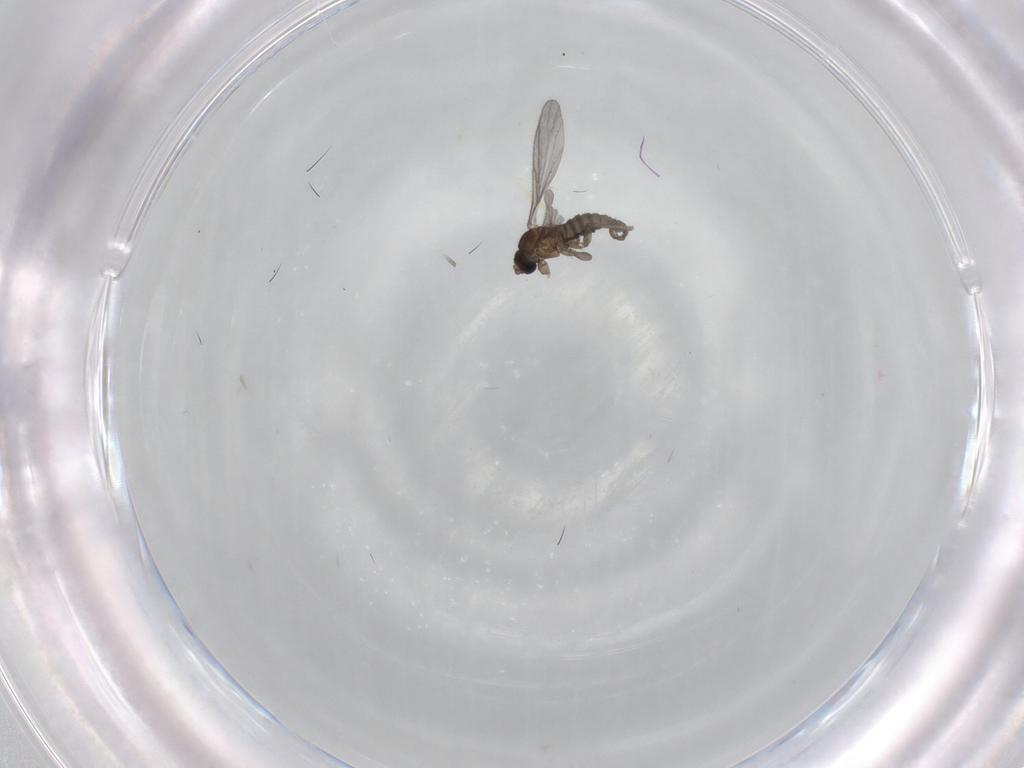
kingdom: Animalia
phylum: Arthropoda
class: Insecta
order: Diptera
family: Sciaridae
